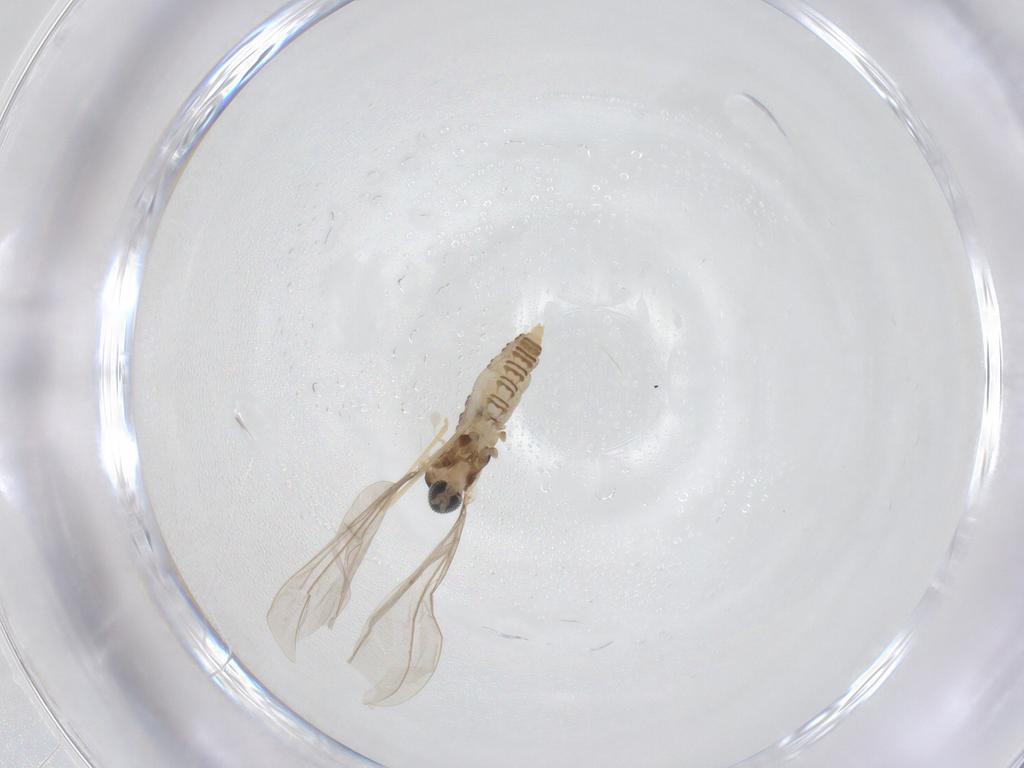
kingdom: Animalia
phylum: Arthropoda
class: Insecta
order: Diptera
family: Cecidomyiidae
